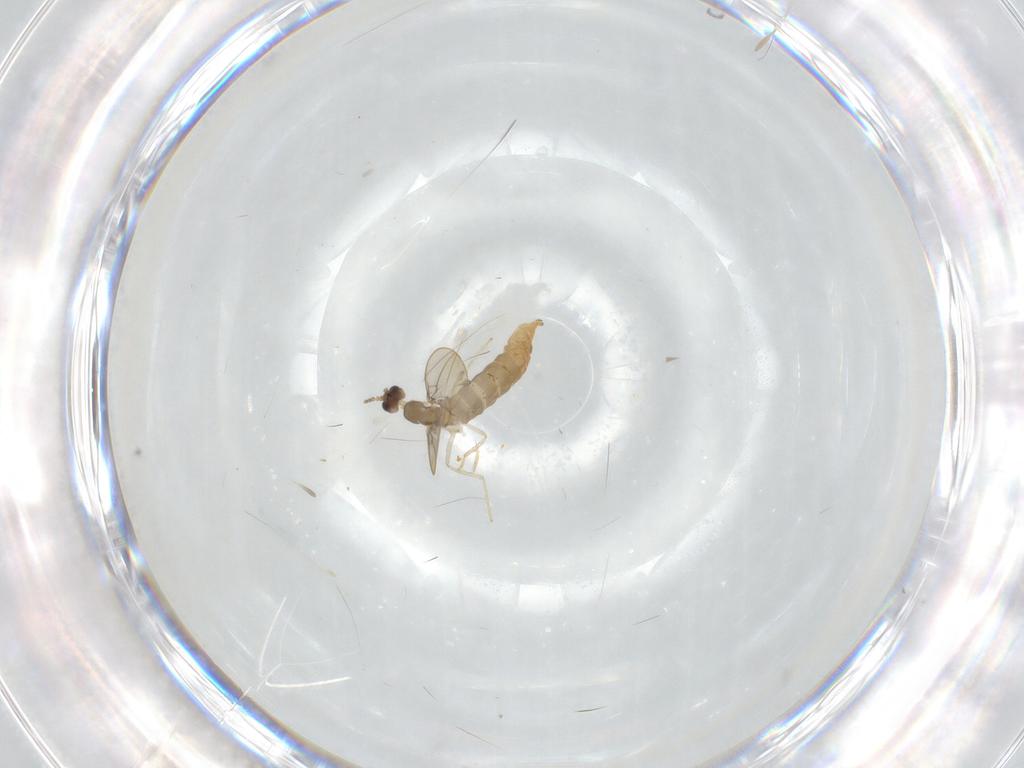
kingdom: Animalia
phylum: Arthropoda
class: Insecta
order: Diptera
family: Cecidomyiidae
